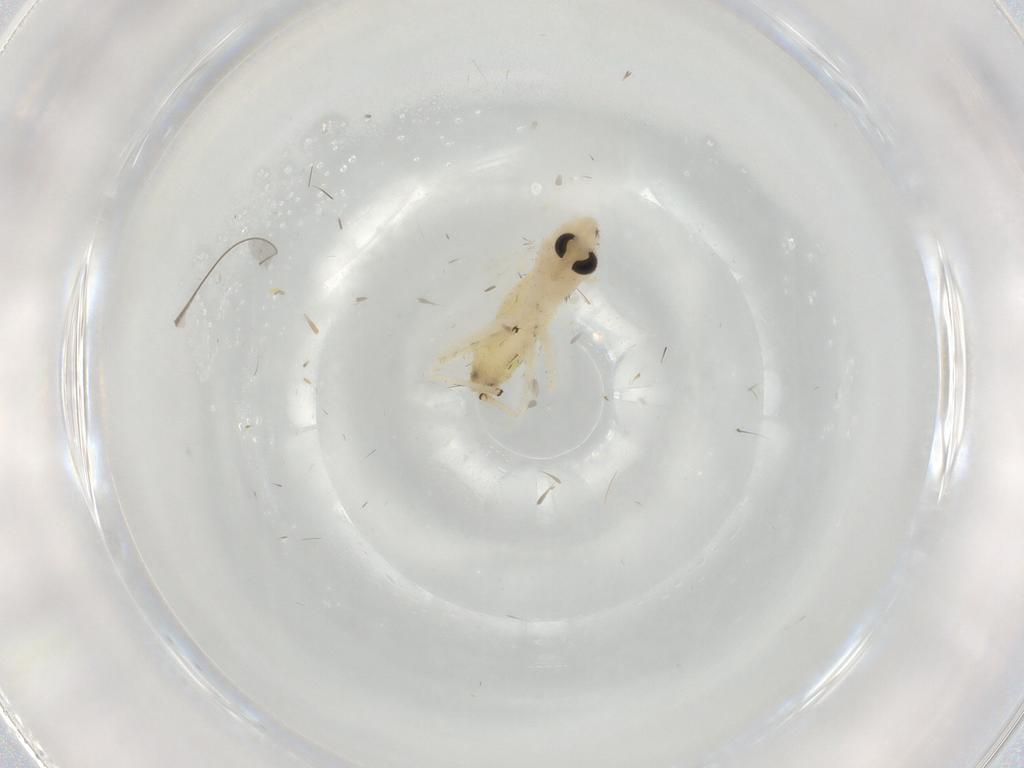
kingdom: Animalia
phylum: Arthropoda
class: Insecta
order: Diptera
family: Chironomidae
